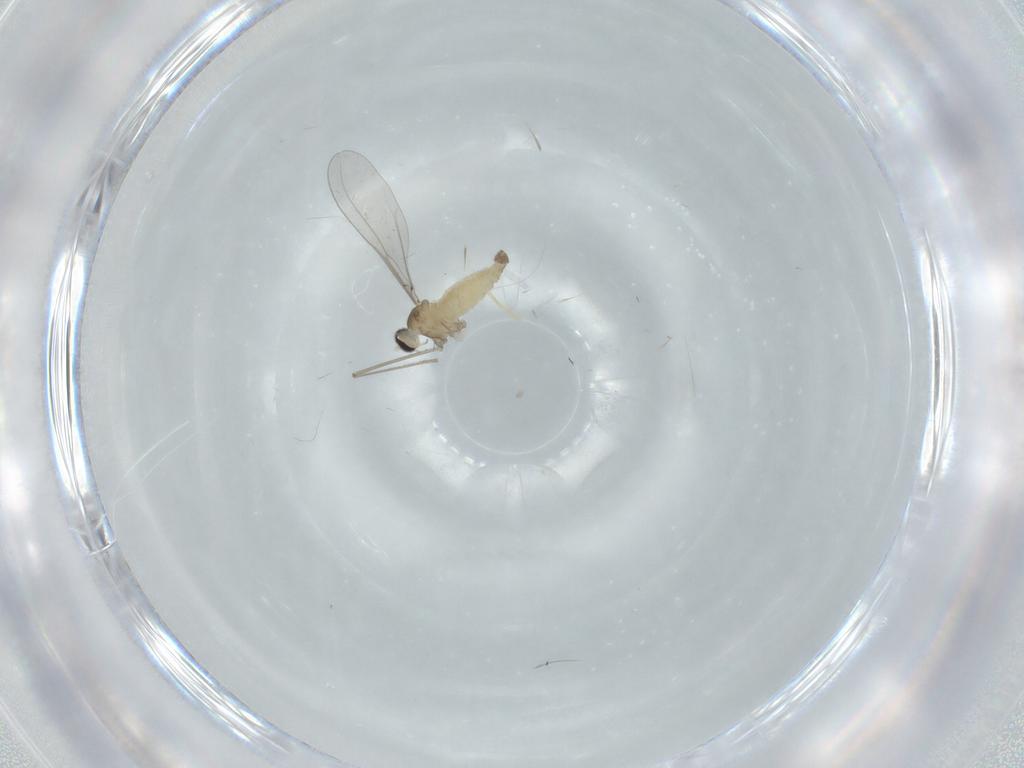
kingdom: Animalia
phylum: Arthropoda
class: Insecta
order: Diptera
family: Cecidomyiidae
